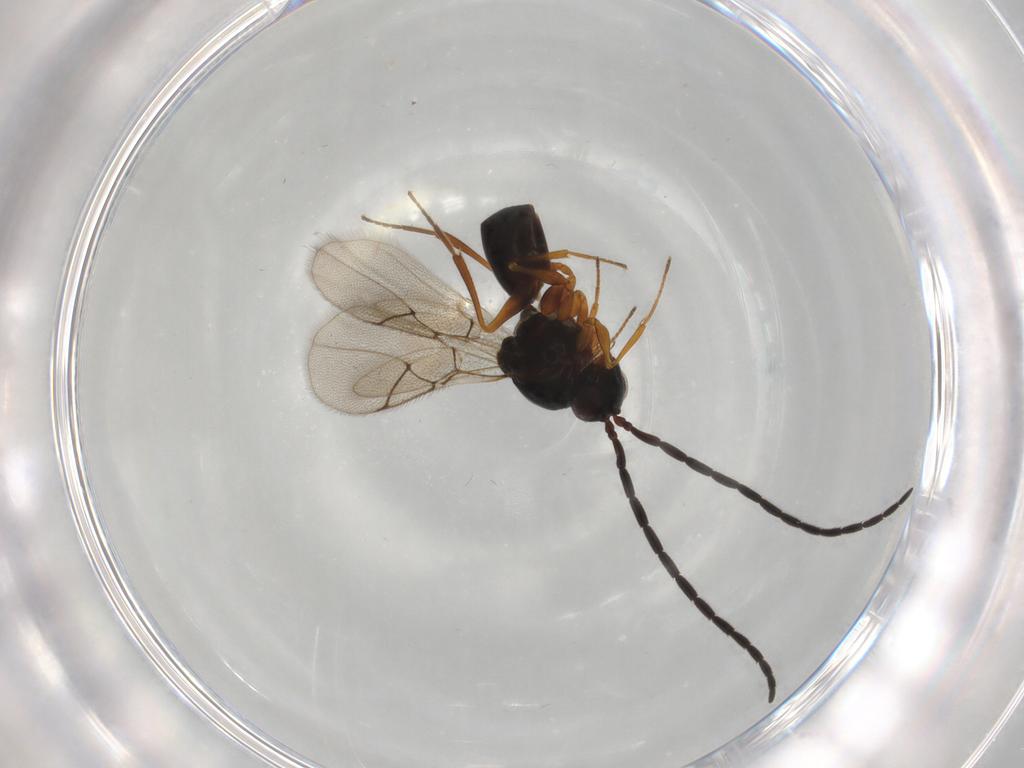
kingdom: Animalia
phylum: Arthropoda
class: Insecta
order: Hymenoptera
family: Figitidae
